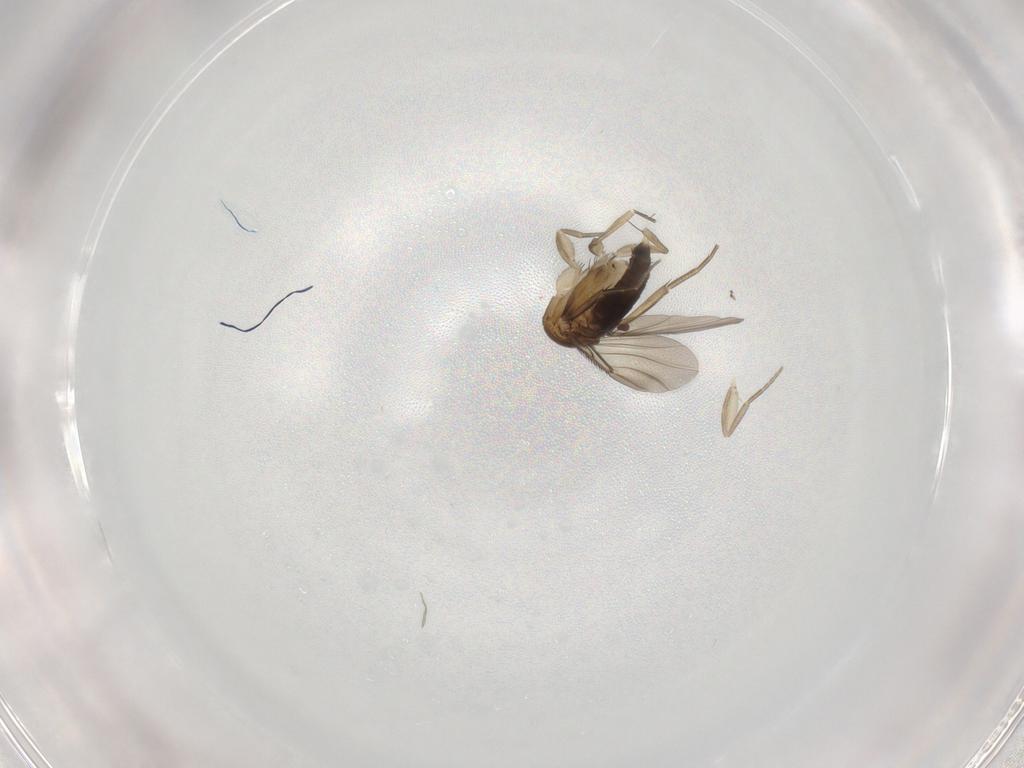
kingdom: Animalia
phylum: Arthropoda
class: Insecta
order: Diptera
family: Phoridae
